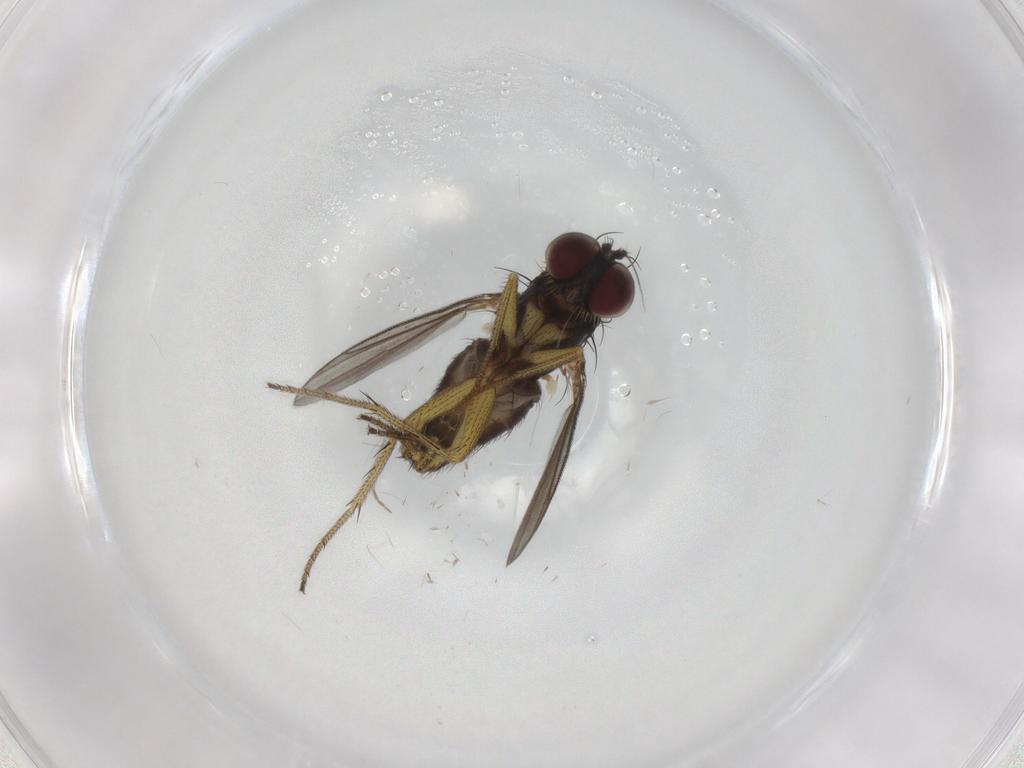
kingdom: Animalia
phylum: Arthropoda
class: Insecta
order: Diptera
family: Dolichopodidae
